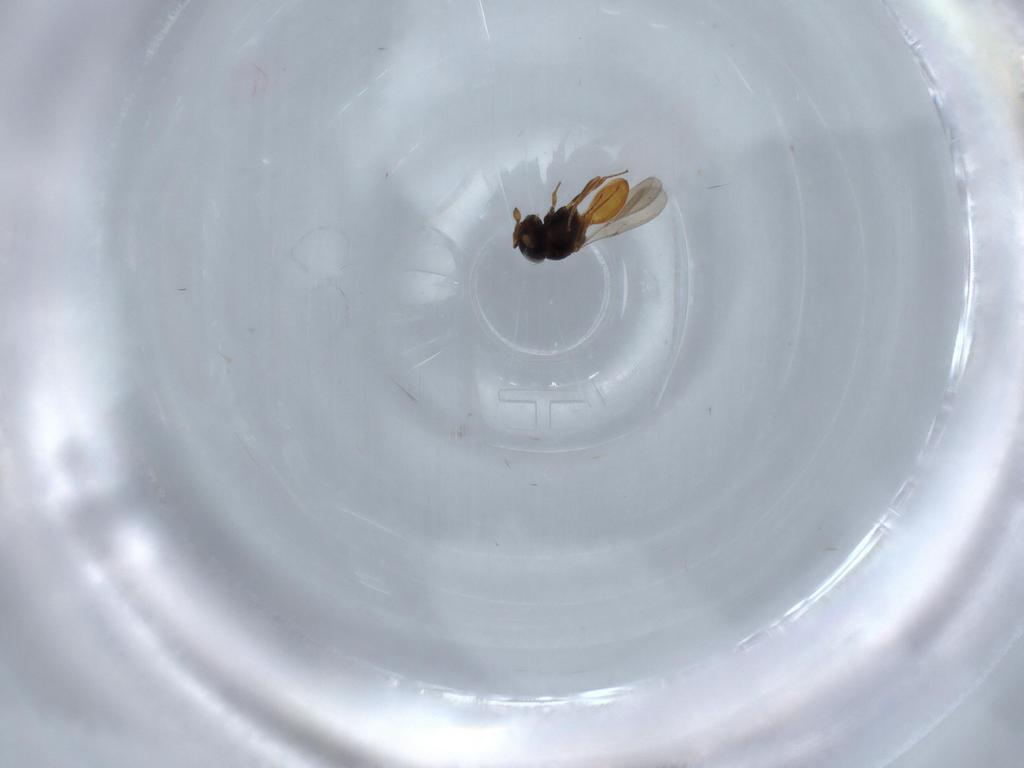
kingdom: Animalia
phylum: Arthropoda
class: Insecta
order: Hymenoptera
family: Scelionidae
